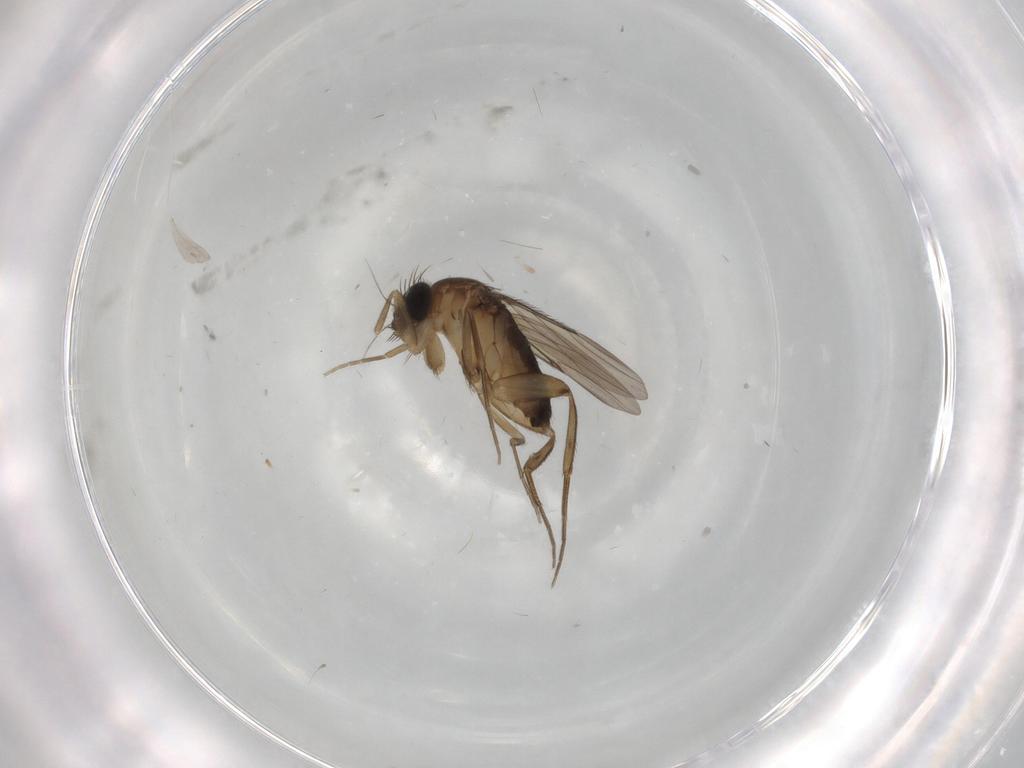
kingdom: Animalia
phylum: Arthropoda
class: Insecta
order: Diptera
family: Phoridae
